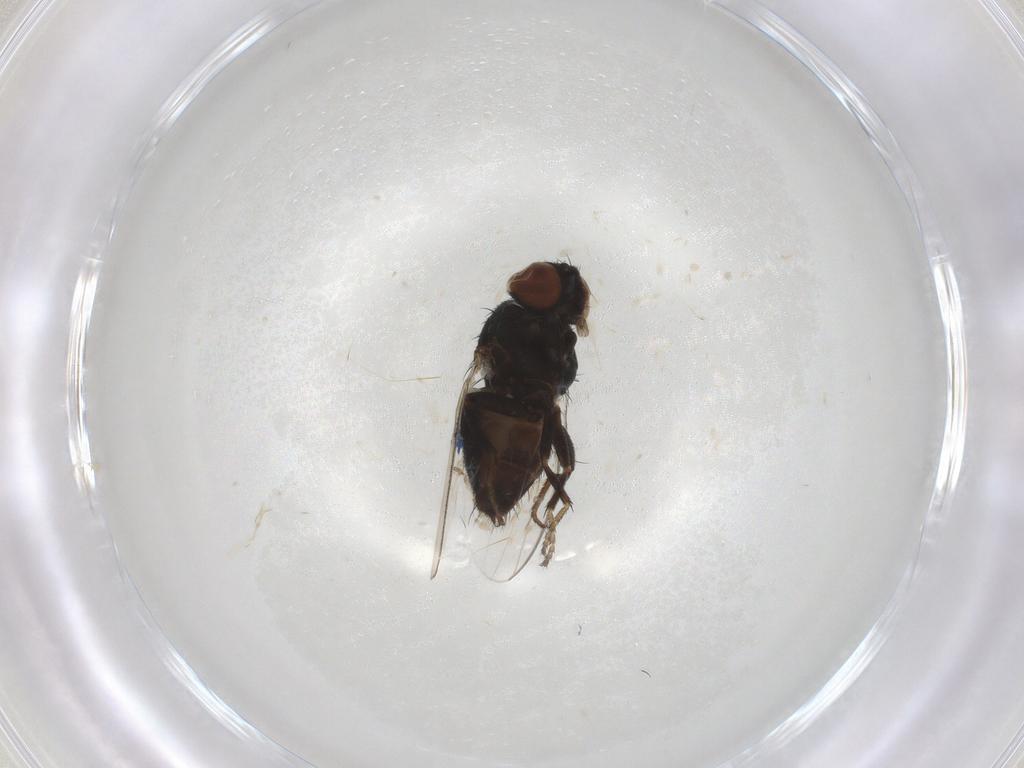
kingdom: Animalia
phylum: Arthropoda
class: Insecta
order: Diptera
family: Milichiidae
